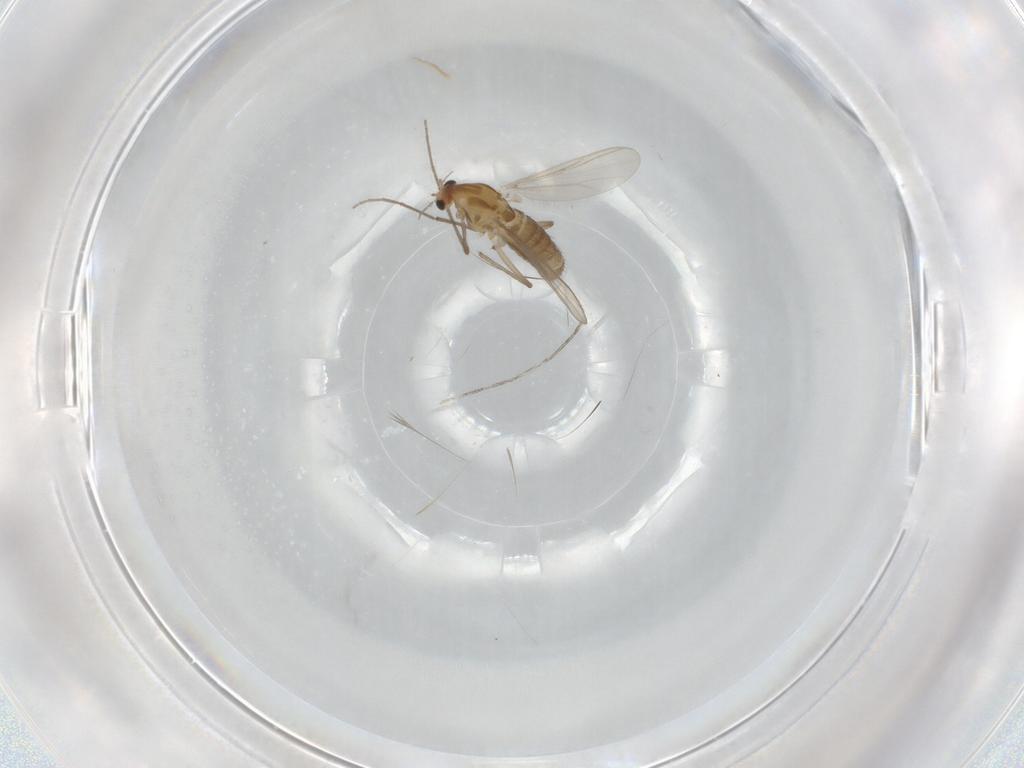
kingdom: Animalia
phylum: Arthropoda
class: Insecta
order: Diptera
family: Chironomidae
